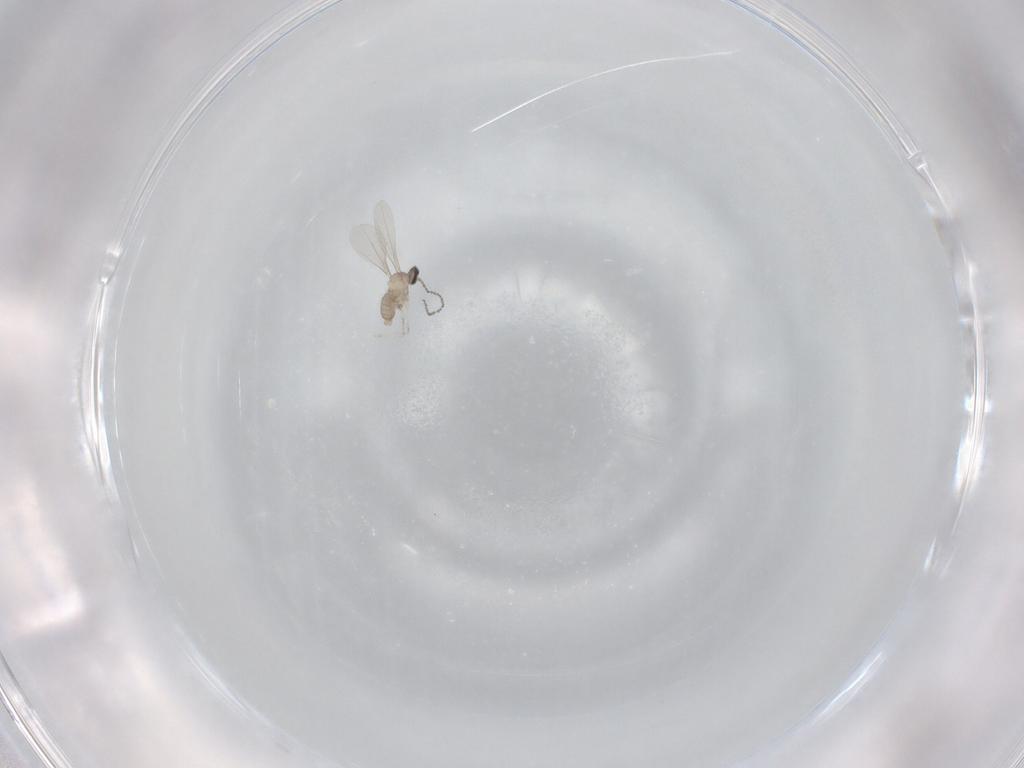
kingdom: Animalia
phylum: Arthropoda
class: Insecta
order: Diptera
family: Cecidomyiidae
